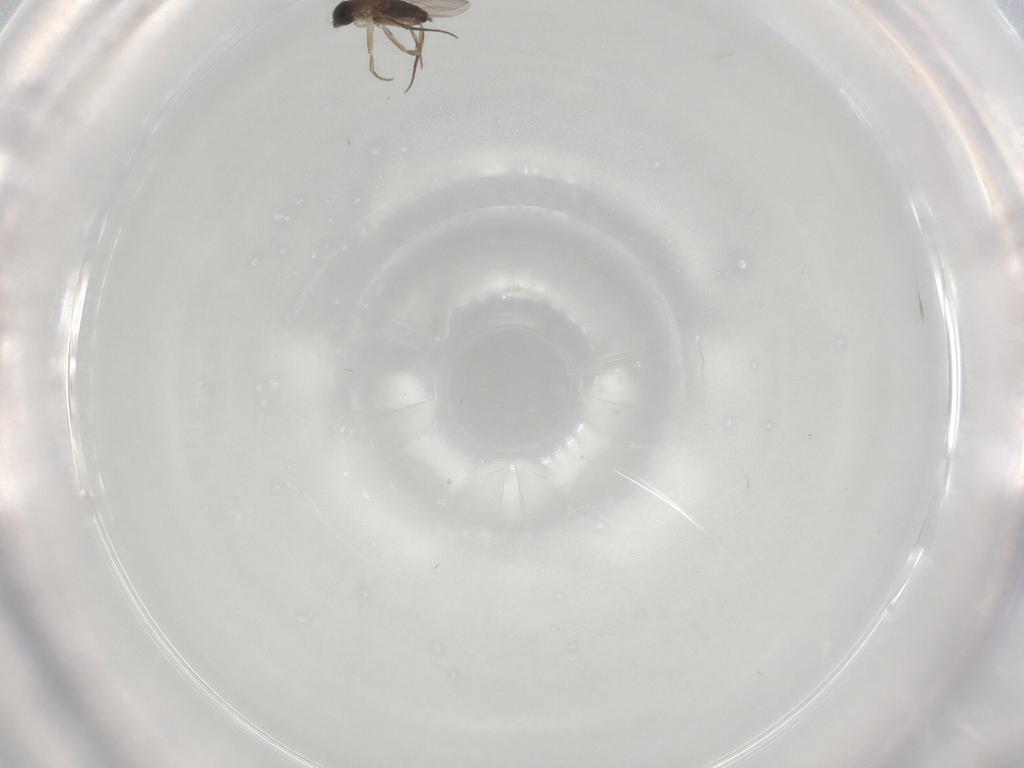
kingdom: Animalia
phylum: Arthropoda
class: Insecta
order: Diptera
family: Phoridae
